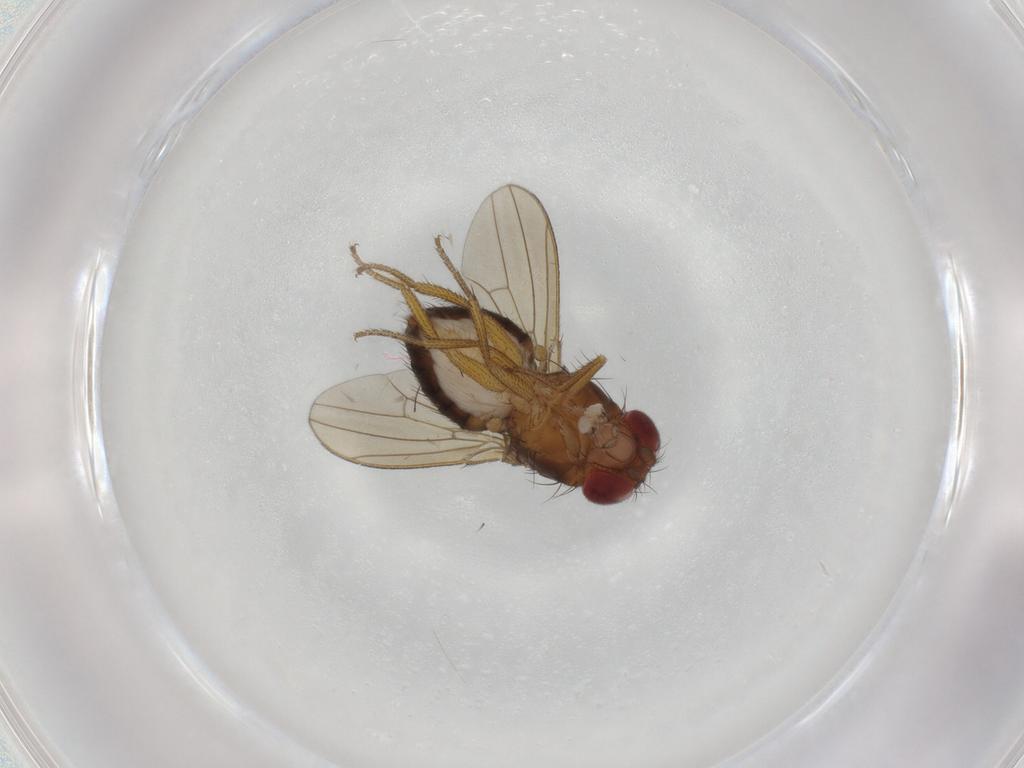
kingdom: Animalia
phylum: Arthropoda
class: Insecta
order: Diptera
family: Drosophilidae
